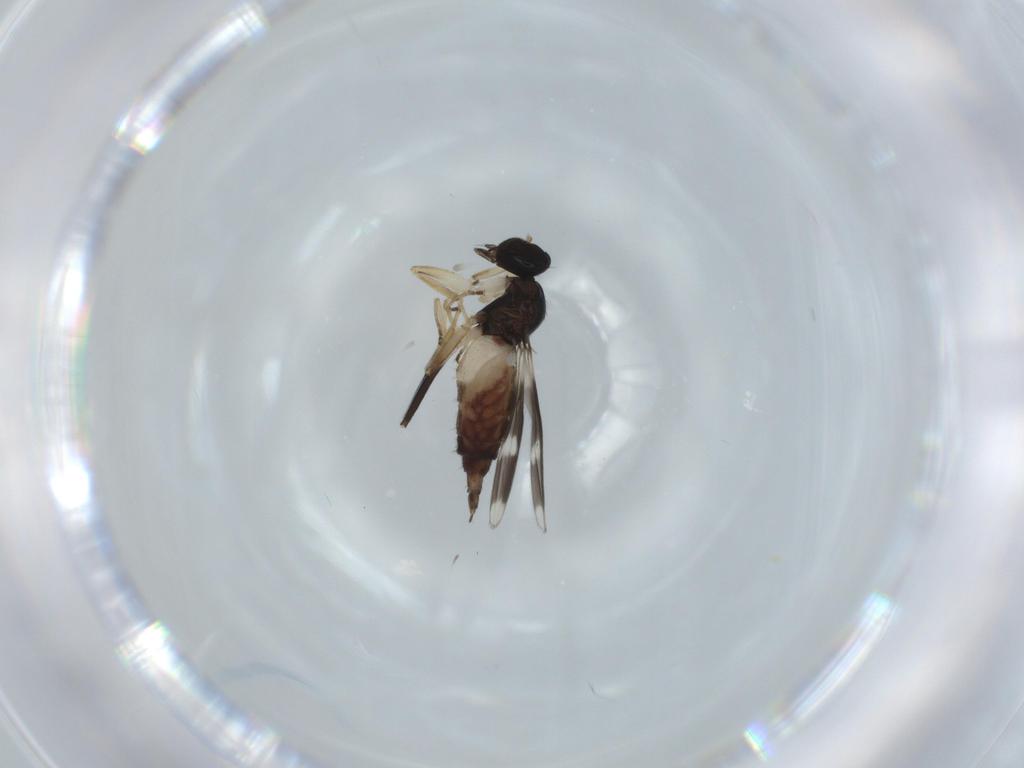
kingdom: Animalia
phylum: Arthropoda
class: Insecta
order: Diptera
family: Hybotidae
